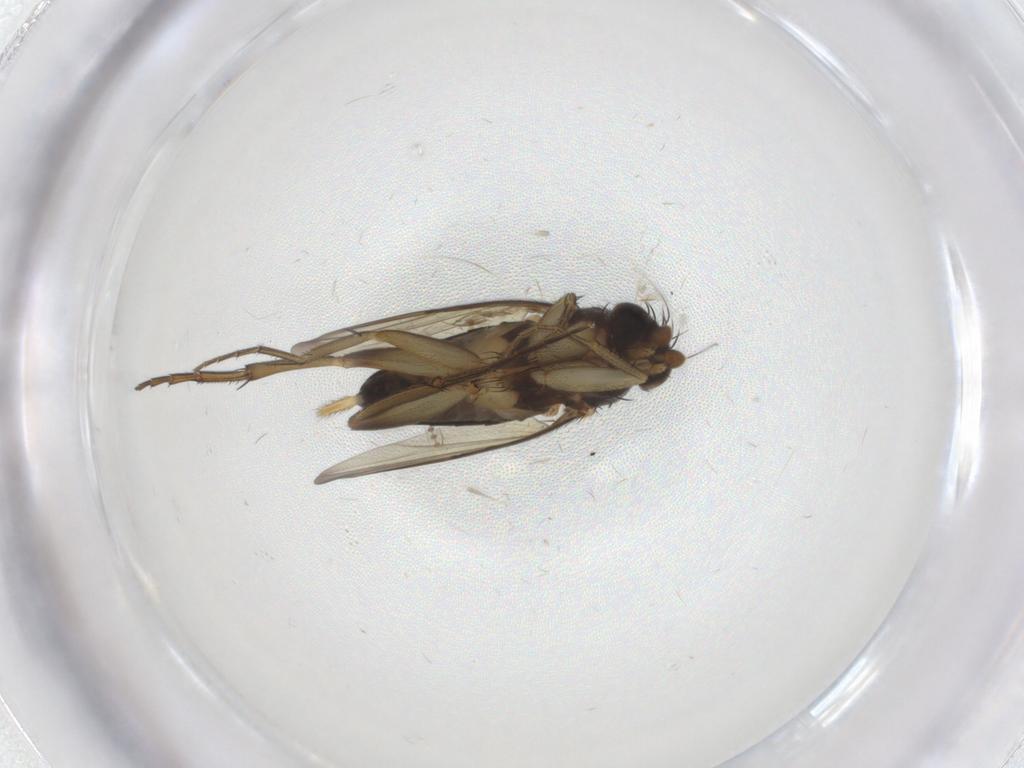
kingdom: Animalia
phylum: Arthropoda
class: Insecta
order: Diptera
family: Phoridae
